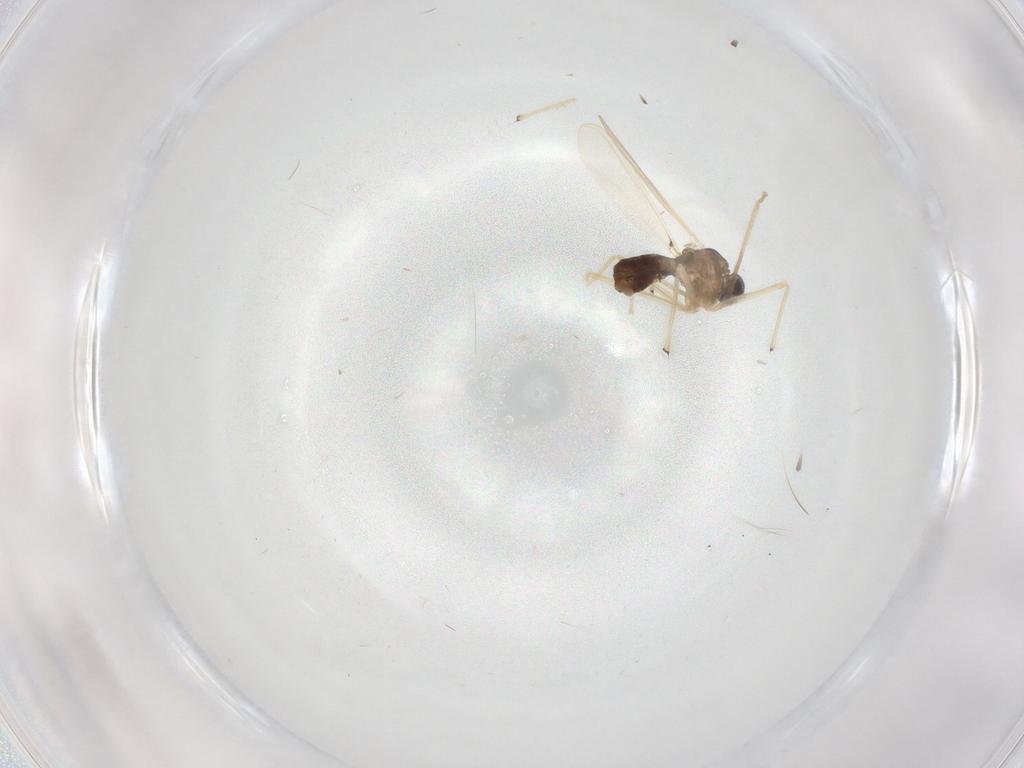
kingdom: Animalia
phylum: Arthropoda
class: Insecta
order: Diptera
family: Chironomidae
